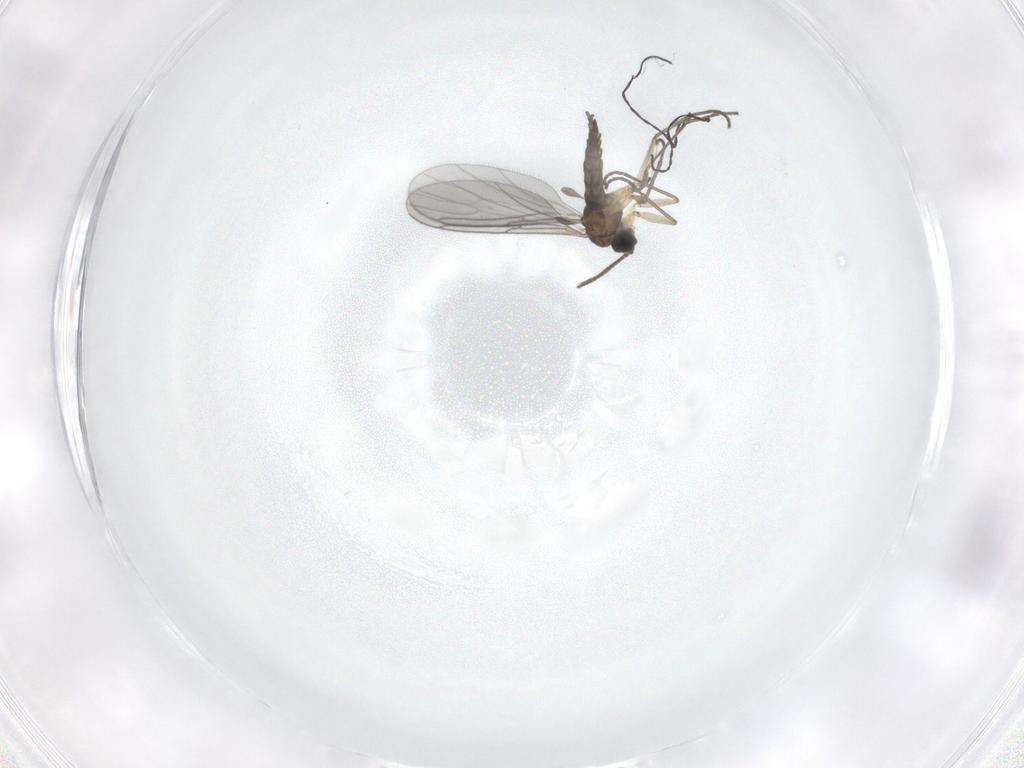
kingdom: Animalia
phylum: Arthropoda
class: Insecta
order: Diptera
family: Sciaridae
